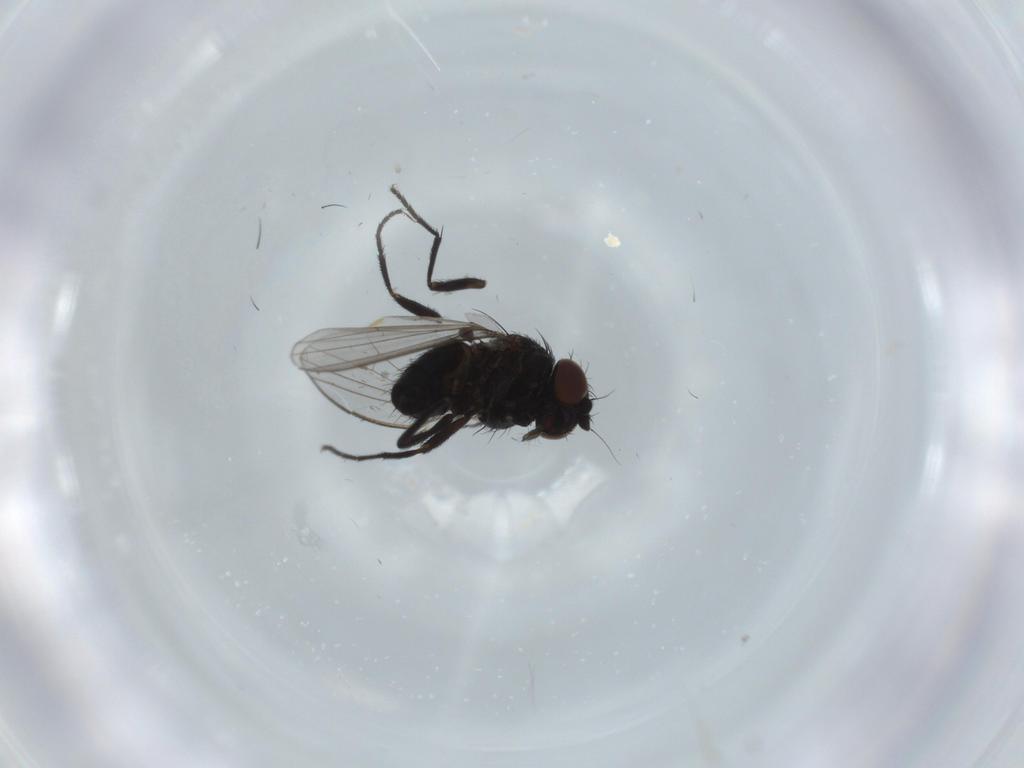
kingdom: Animalia
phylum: Arthropoda
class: Insecta
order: Diptera
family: Milichiidae
